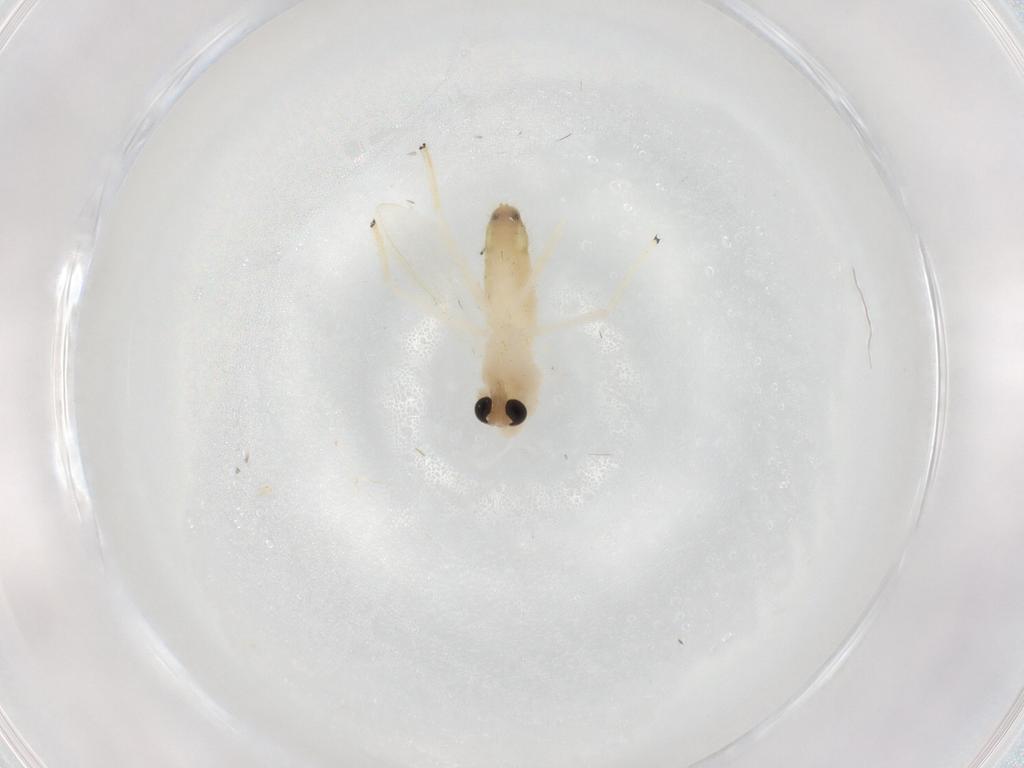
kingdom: Animalia
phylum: Arthropoda
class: Insecta
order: Diptera
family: Chironomidae
